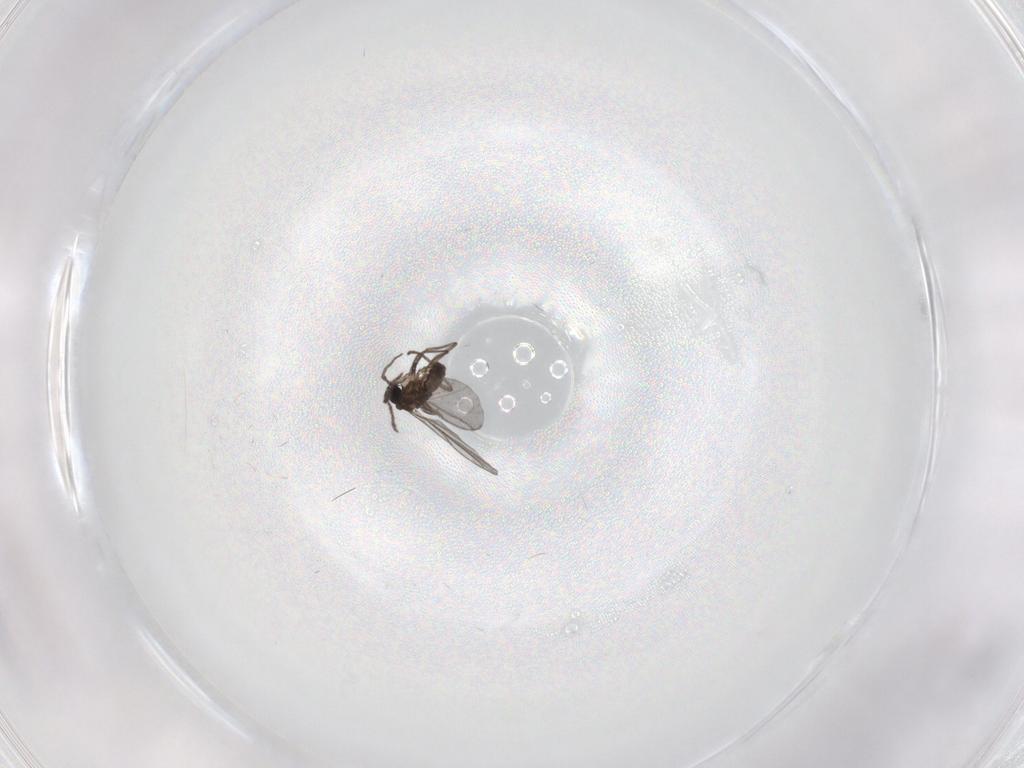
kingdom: Animalia
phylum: Arthropoda
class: Insecta
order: Diptera
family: Sciaridae
